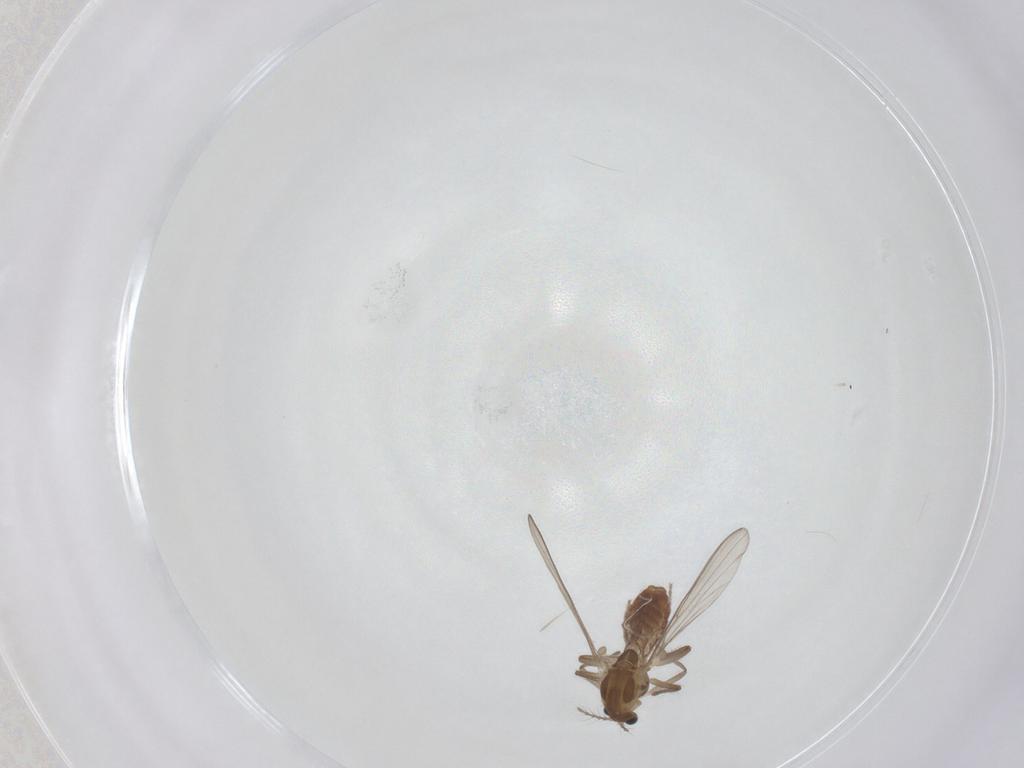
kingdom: Animalia
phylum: Arthropoda
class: Insecta
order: Diptera
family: Chironomidae
